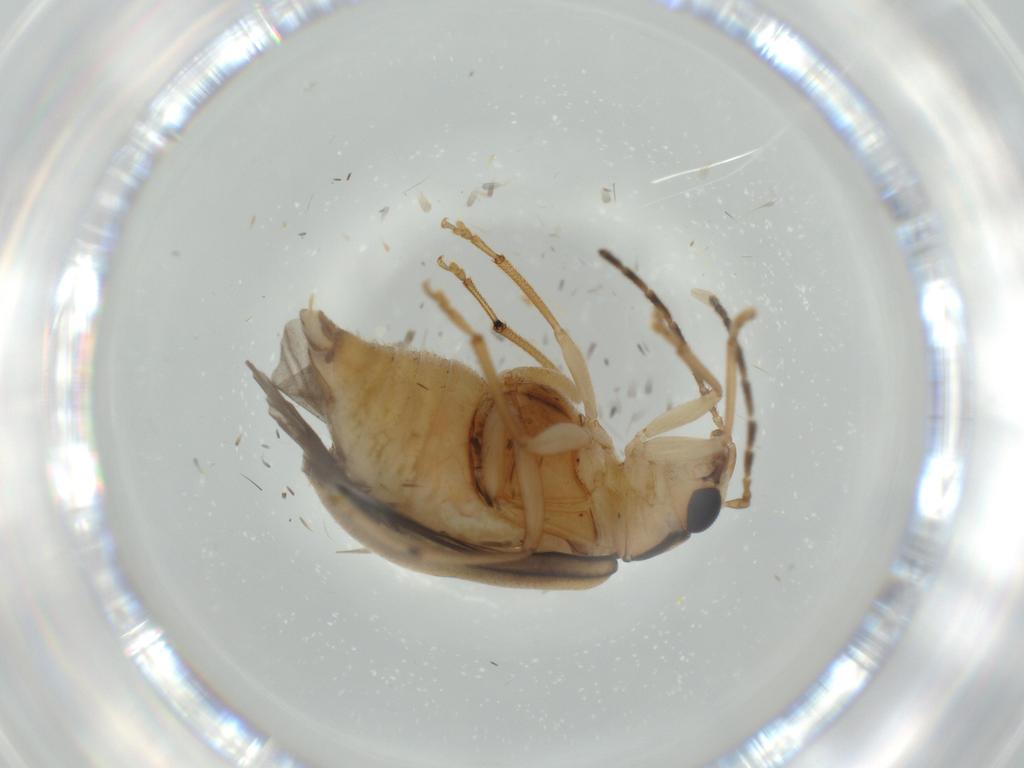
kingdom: Animalia
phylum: Arthropoda
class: Insecta
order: Coleoptera
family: Chrysomelidae
